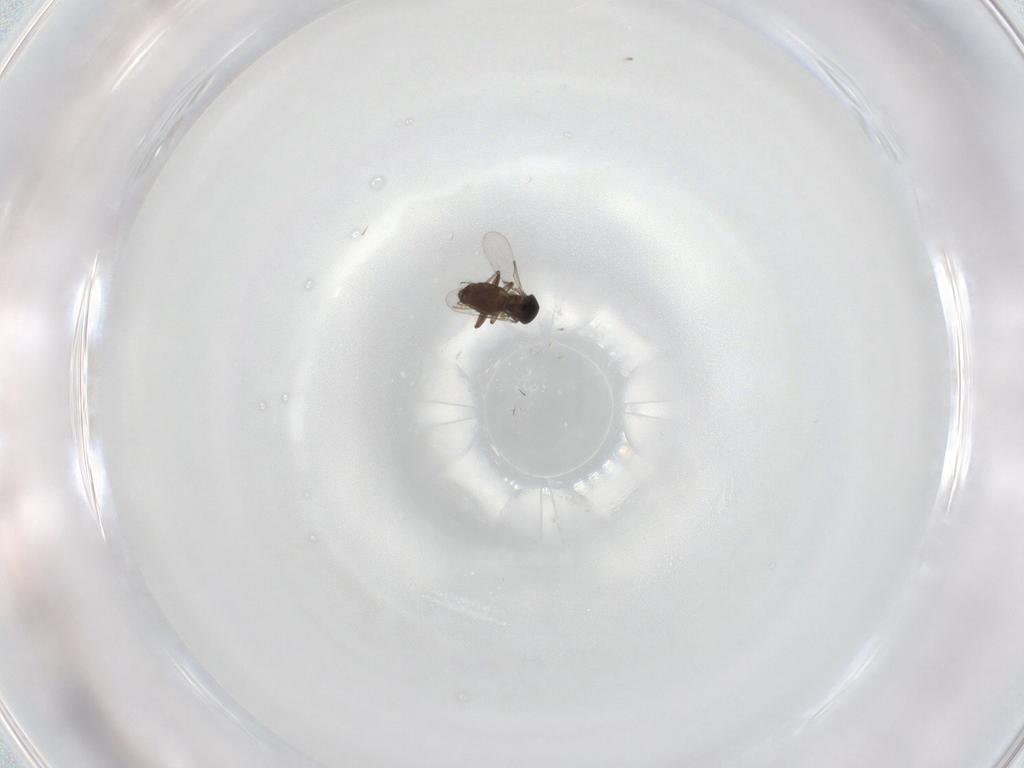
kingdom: Animalia
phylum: Arthropoda
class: Insecta
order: Diptera
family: Ceratopogonidae
